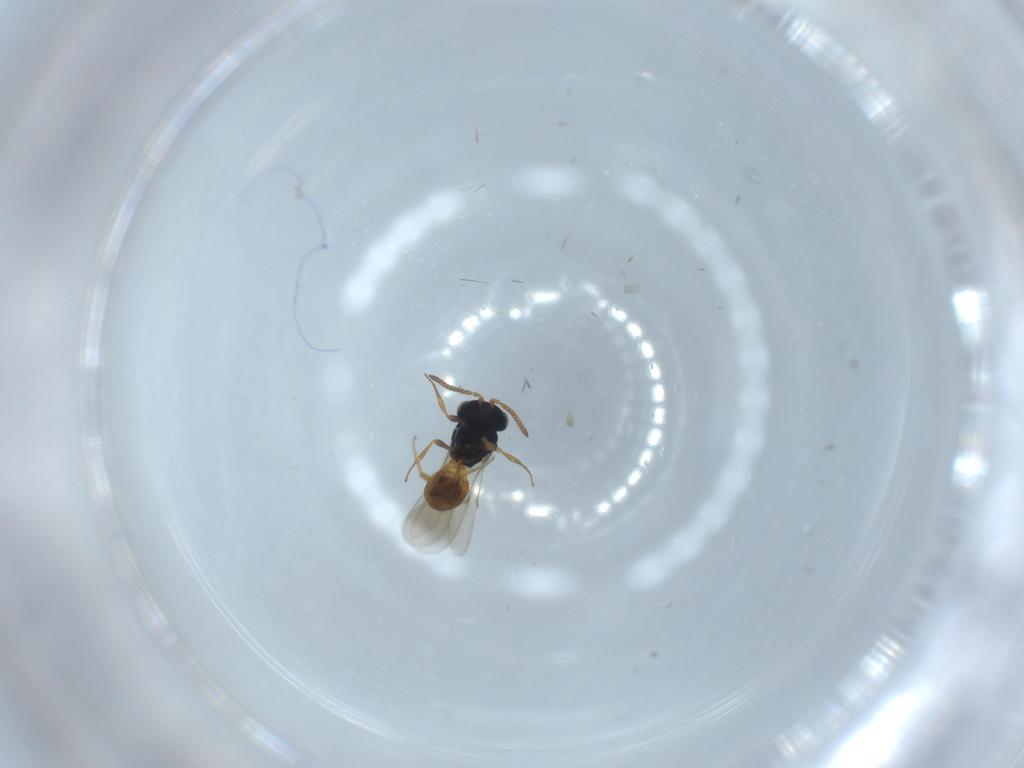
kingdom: Animalia
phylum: Arthropoda
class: Insecta
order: Hymenoptera
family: Scelionidae
